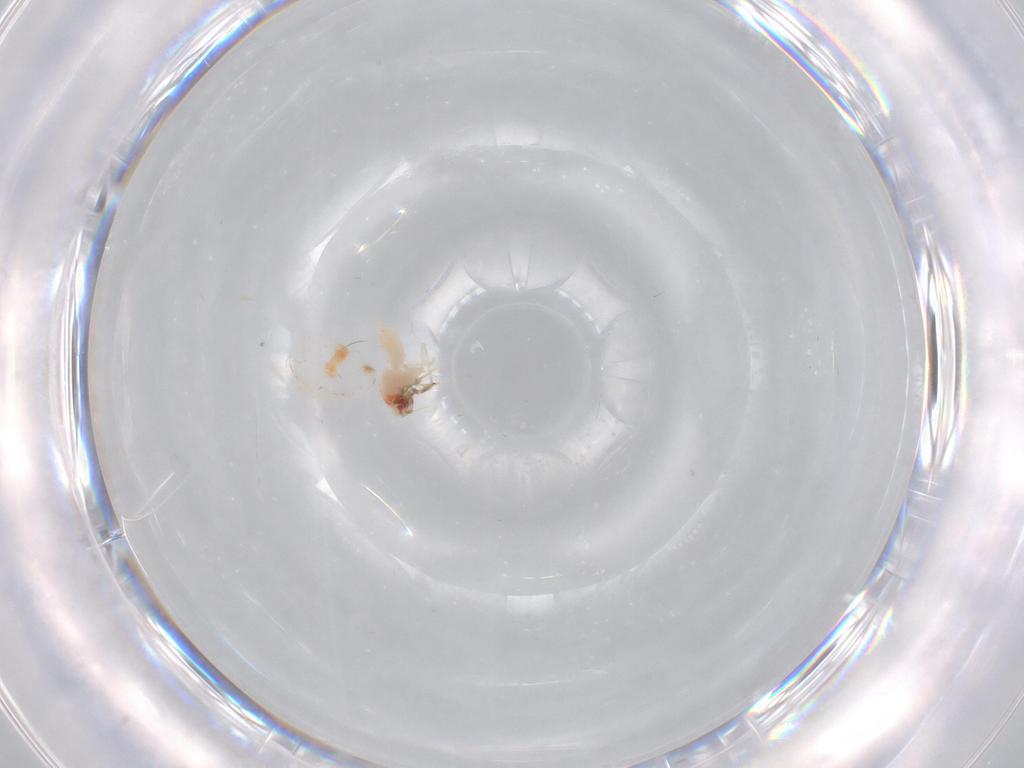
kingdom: Animalia
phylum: Arthropoda
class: Insecta
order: Hemiptera
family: Aleyrodidae
